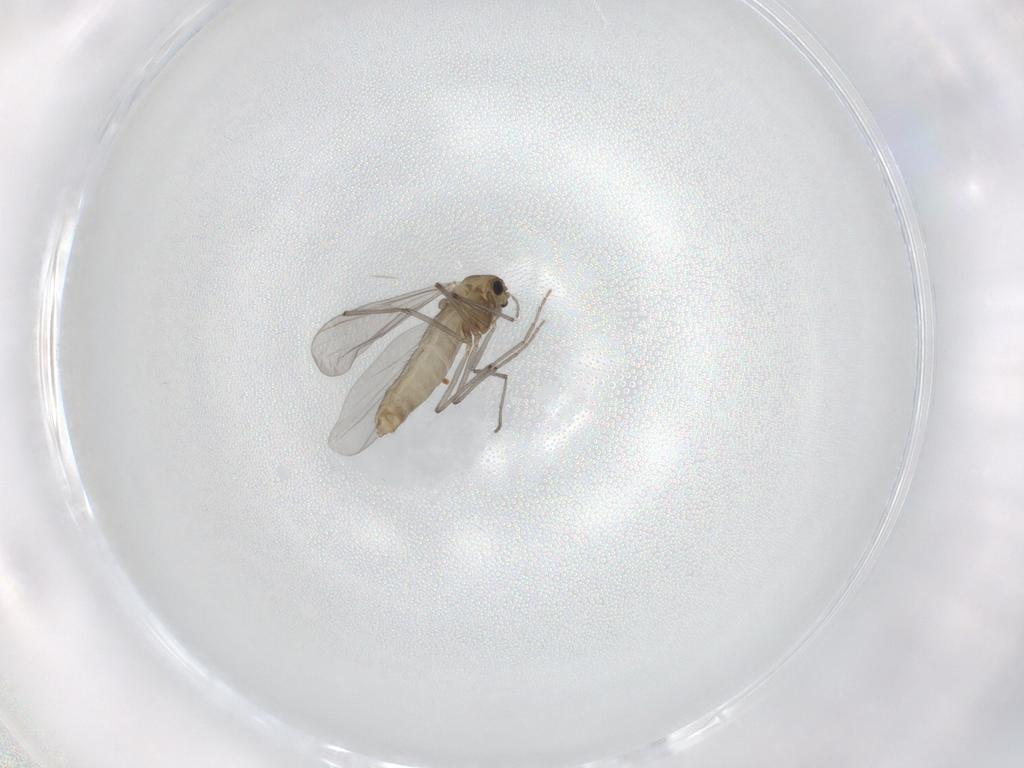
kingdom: Animalia
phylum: Arthropoda
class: Insecta
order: Diptera
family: Chironomidae
